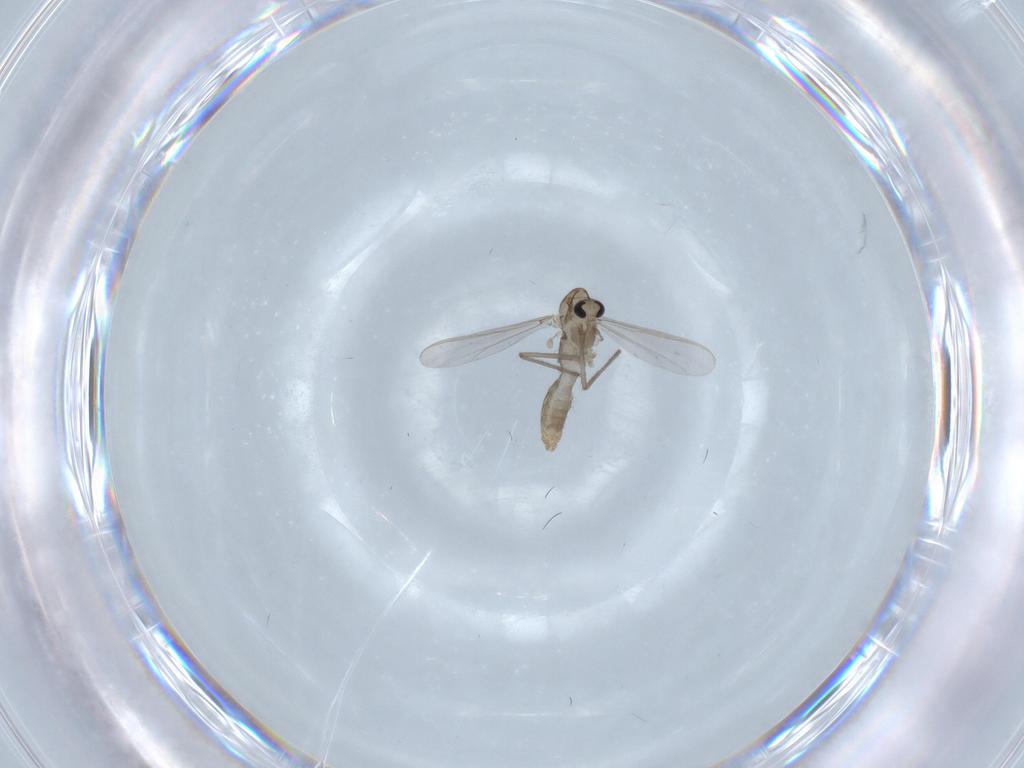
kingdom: Animalia
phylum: Arthropoda
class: Insecta
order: Diptera
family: Chironomidae
